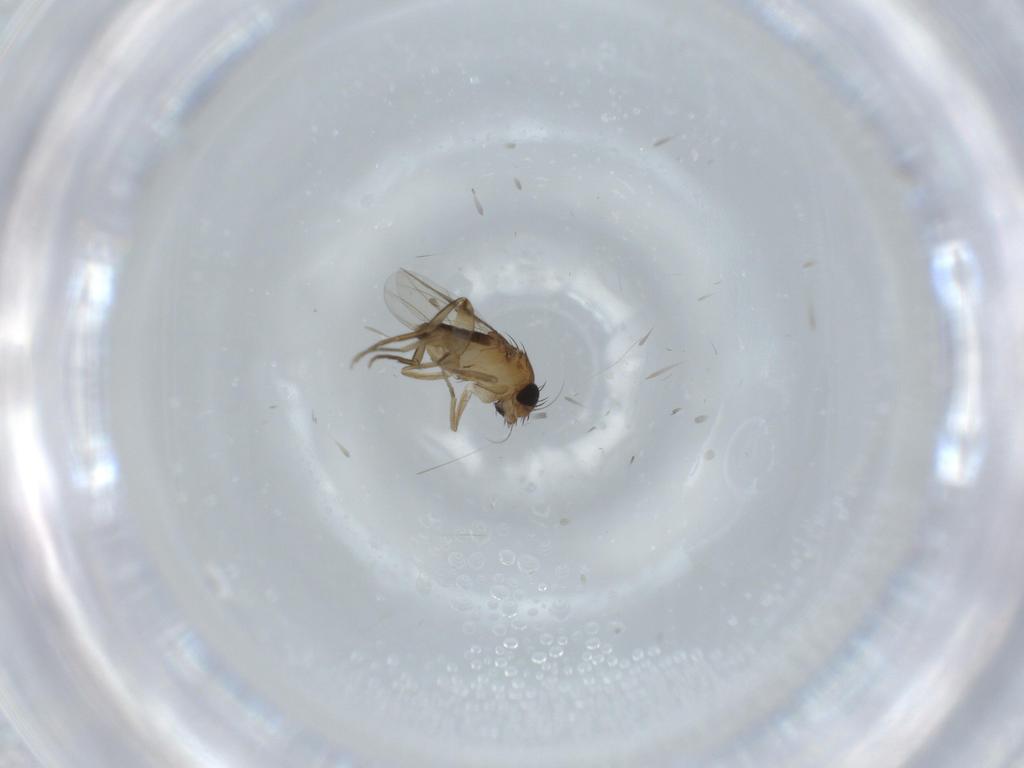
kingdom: Animalia
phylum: Arthropoda
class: Insecta
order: Diptera
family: Phoridae
